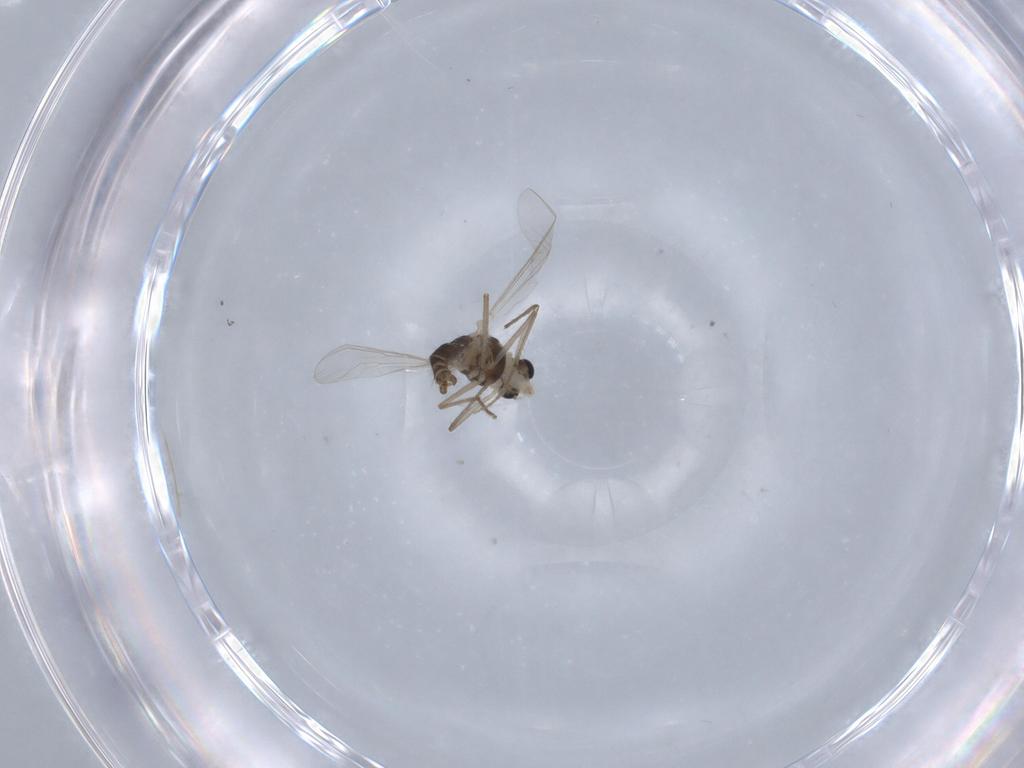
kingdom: Animalia
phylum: Arthropoda
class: Insecta
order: Diptera
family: Chironomidae
